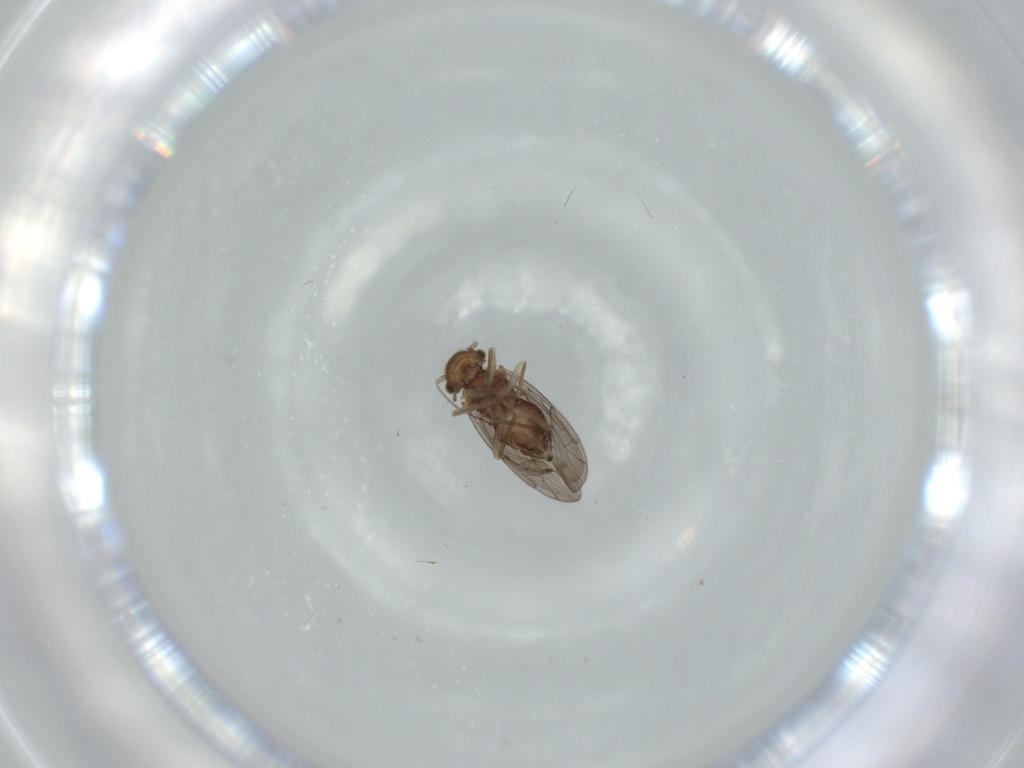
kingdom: Animalia
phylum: Arthropoda
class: Insecta
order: Psocodea
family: Ectopsocidae
